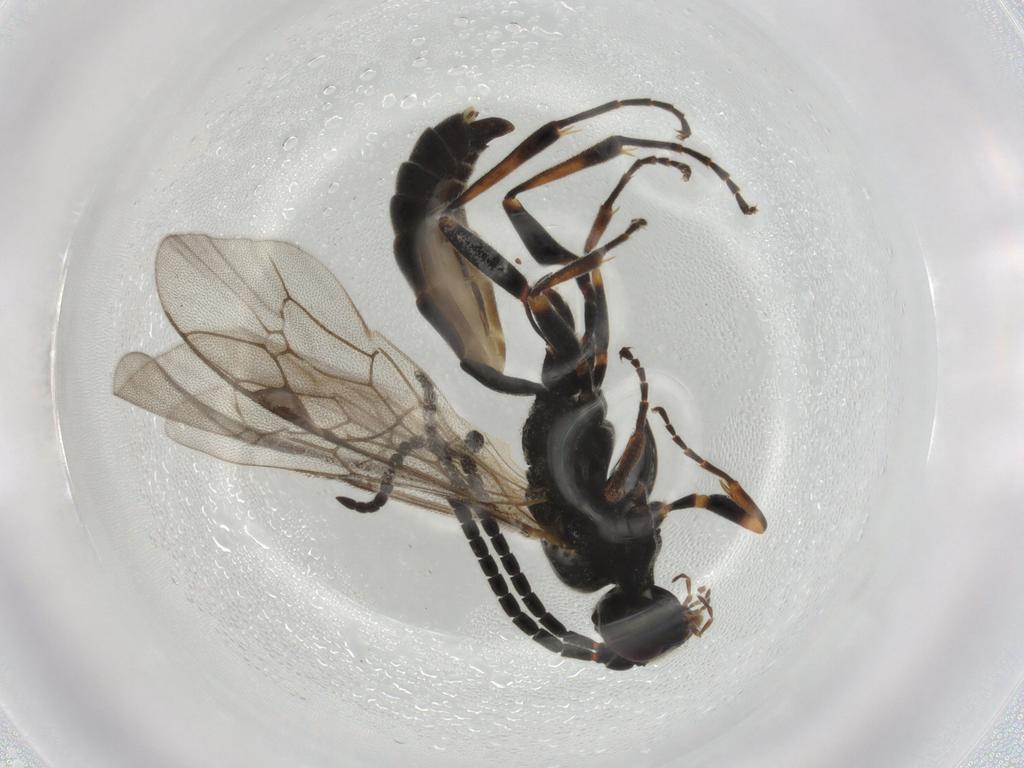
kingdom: Animalia
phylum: Arthropoda
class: Insecta
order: Hymenoptera
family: Ichneumonidae
